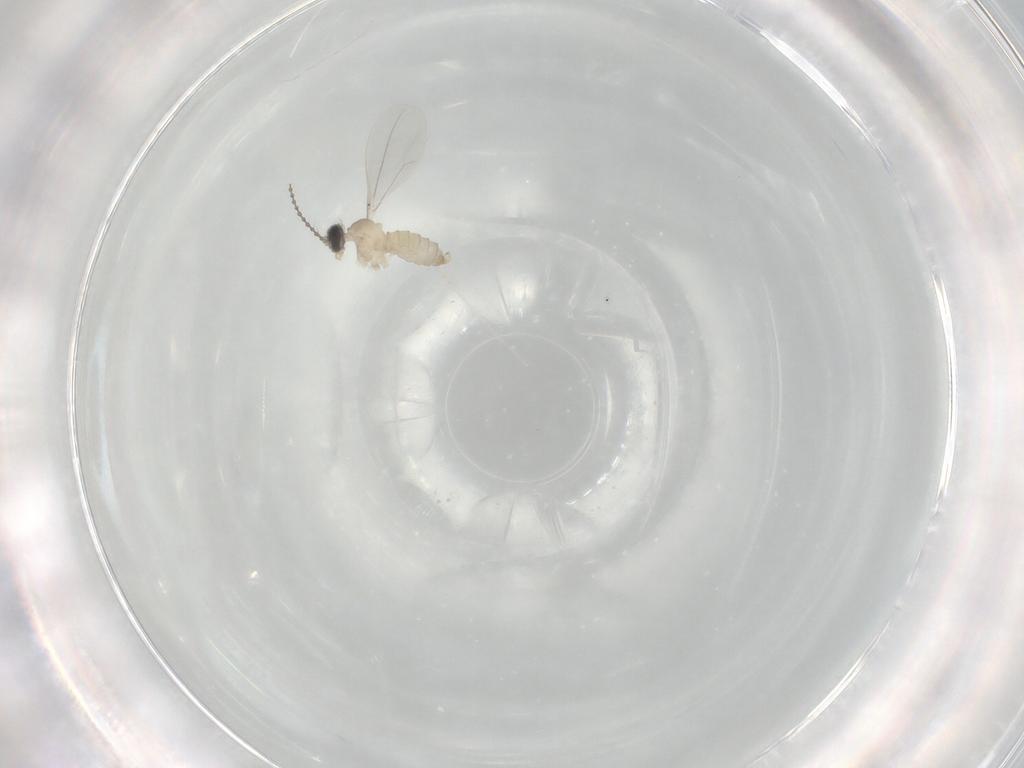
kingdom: Animalia
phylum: Arthropoda
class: Insecta
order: Diptera
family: Cecidomyiidae
